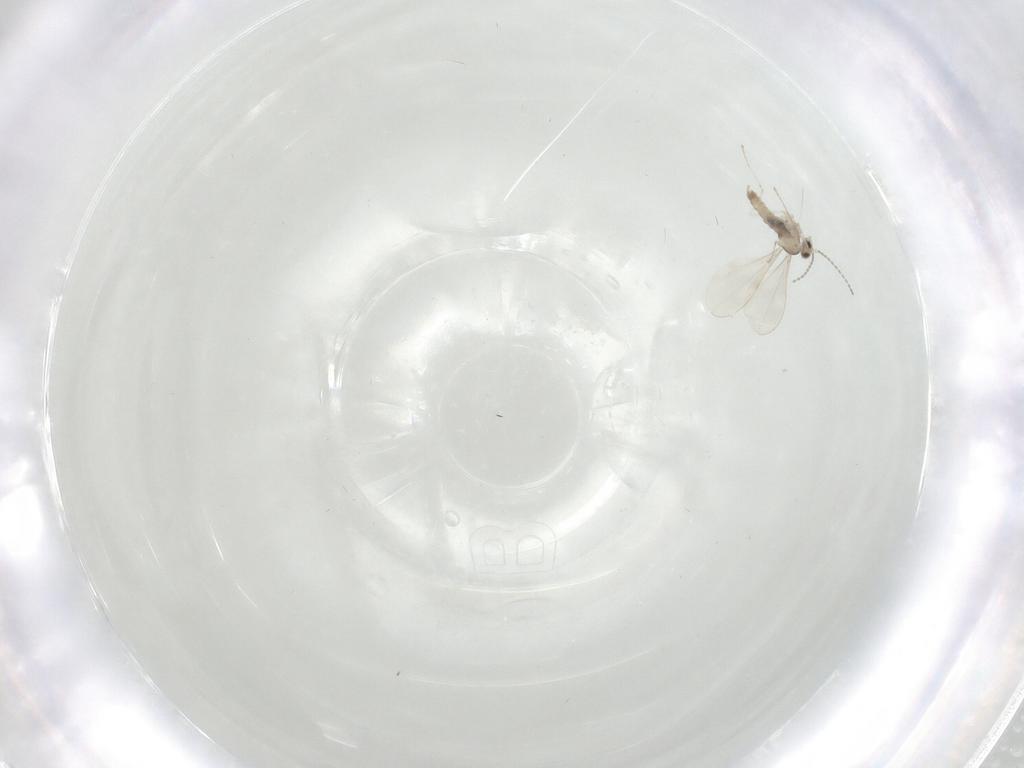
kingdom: Animalia
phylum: Arthropoda
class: Insecta
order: Diptera
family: Cecidomyiidae
